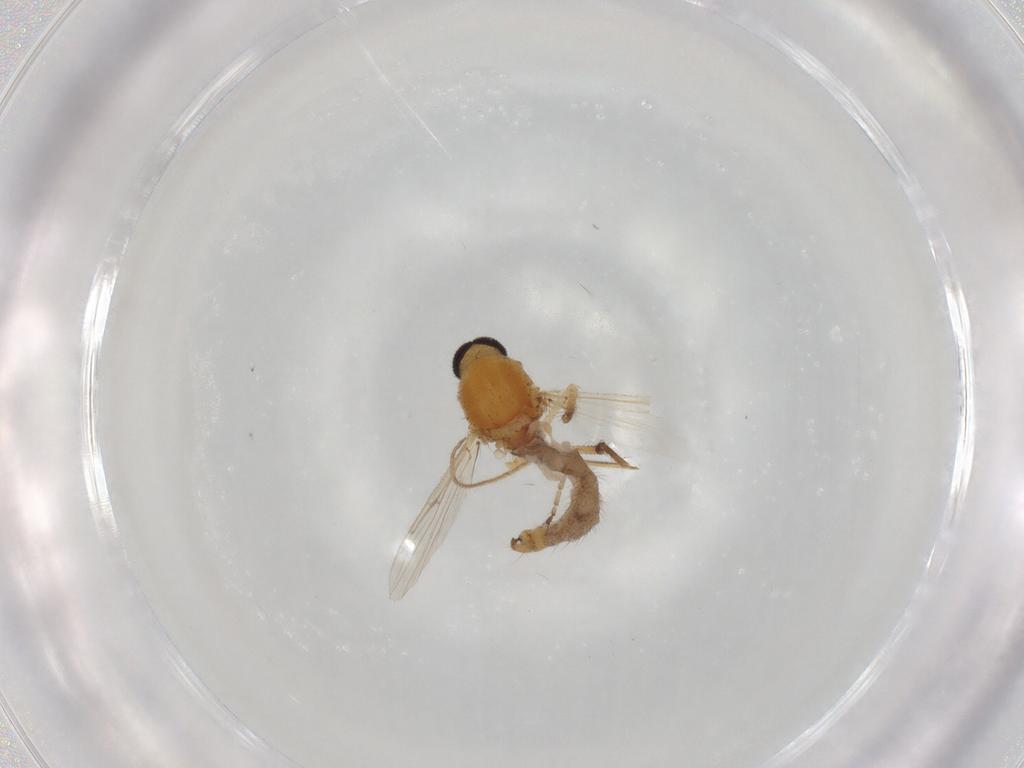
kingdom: Animalia
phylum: Arthropoda
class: Insecta
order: Diptera
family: Ceratopogonidae
